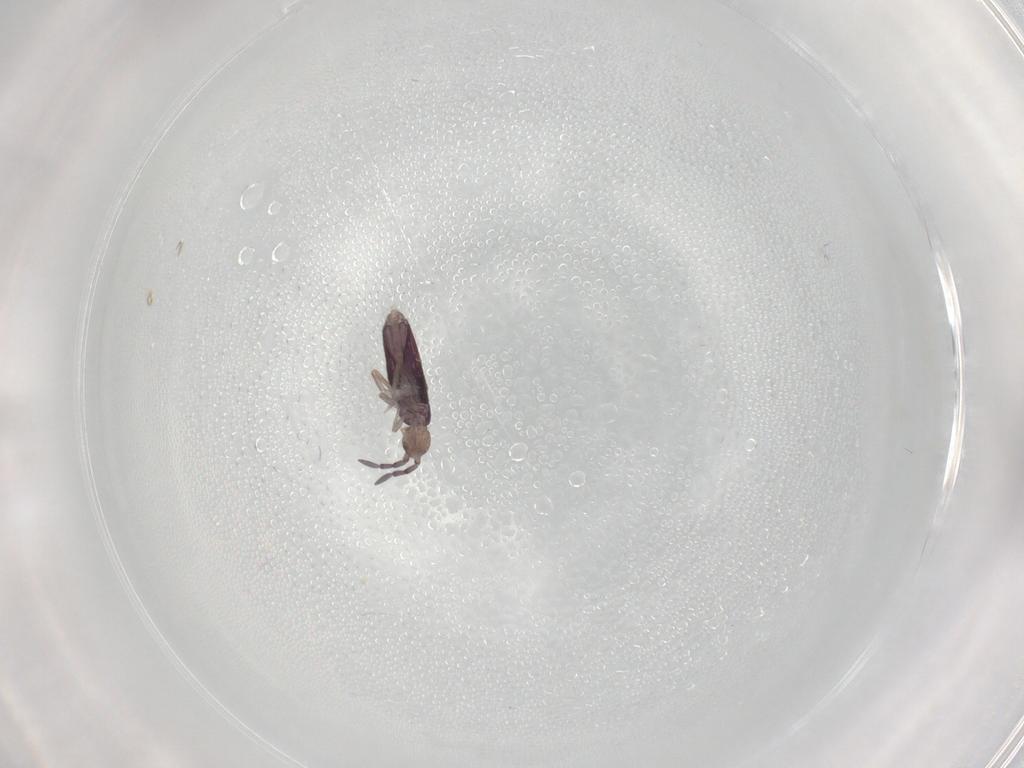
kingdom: Animalia
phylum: Arthropoda
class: Collembola
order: Entomobryomorpha
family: Entomobryidae
